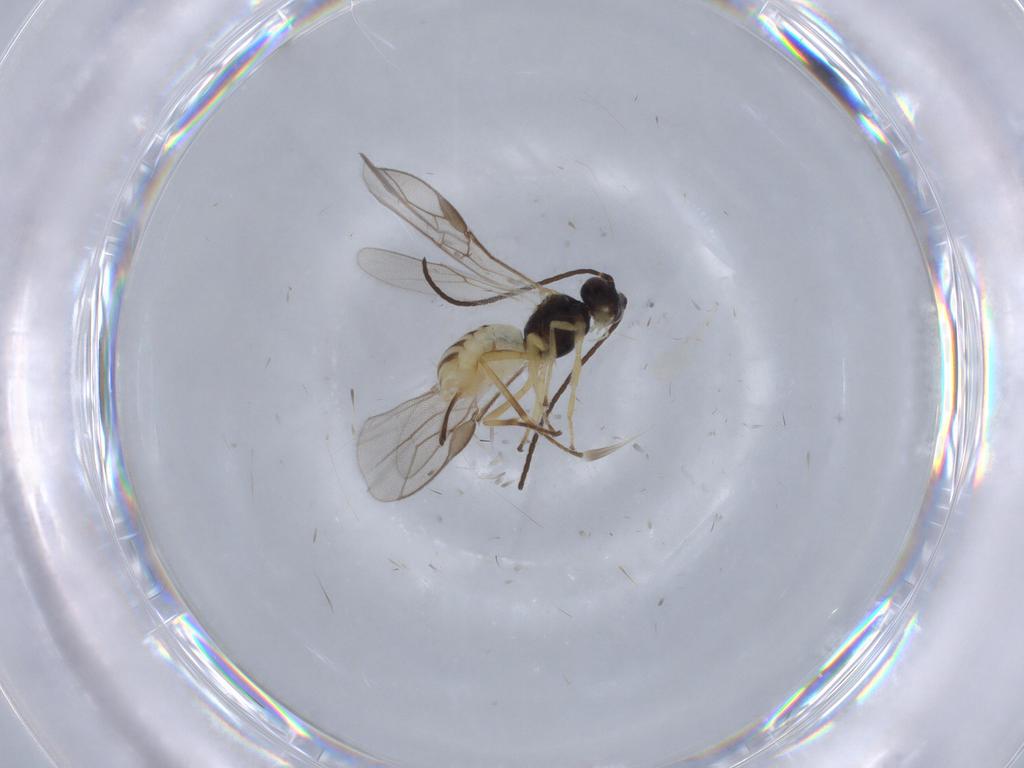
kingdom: Animalia
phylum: Arthropoda
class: Insecta
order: Hymenoptera
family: Braconidae
